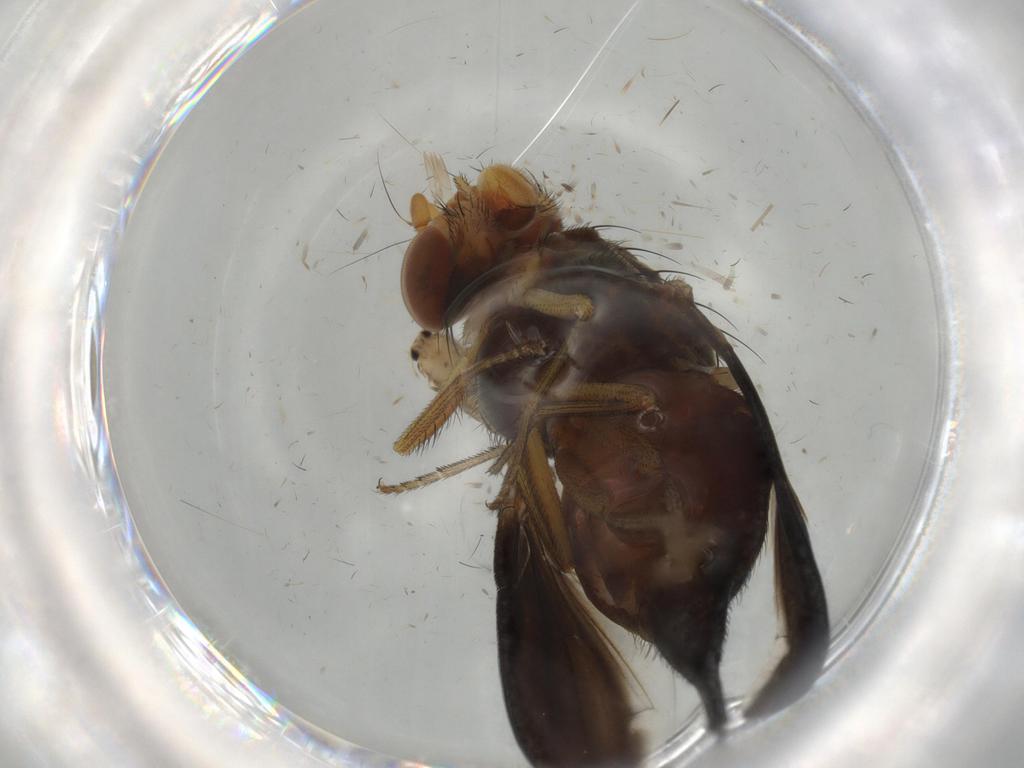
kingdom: Animalia
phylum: Arthropoda
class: Insecta
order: Diptera
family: Ulidiidae
